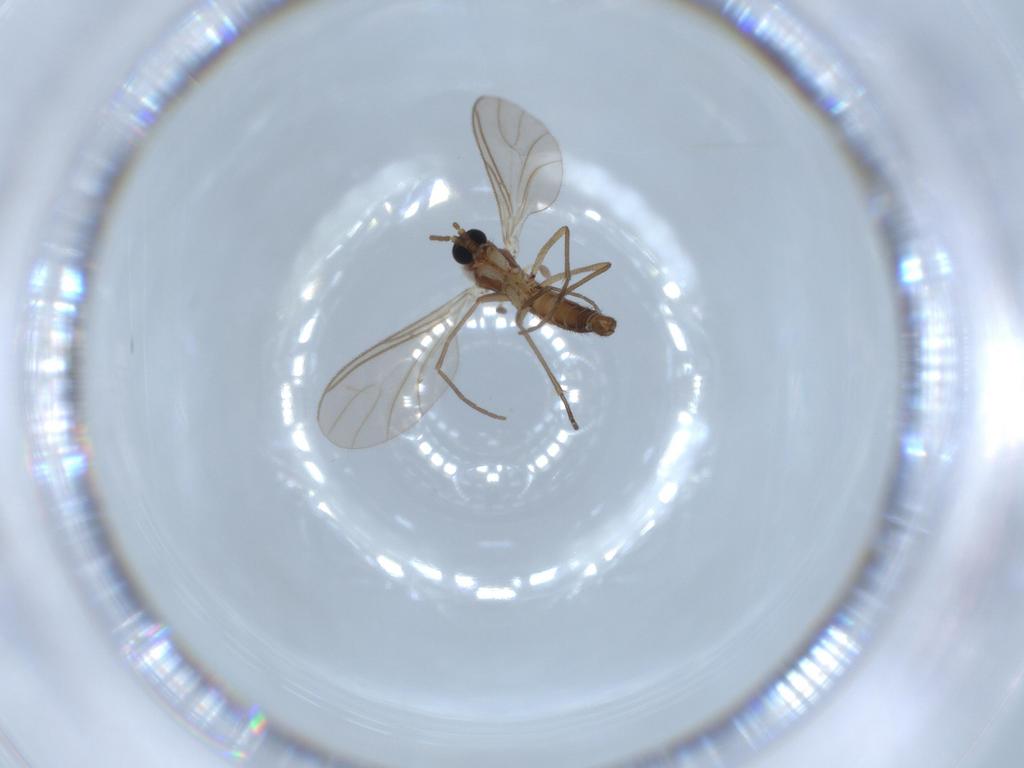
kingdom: Animalia
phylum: Arthropoda
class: Insecta
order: Diptera
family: Sciaridae
